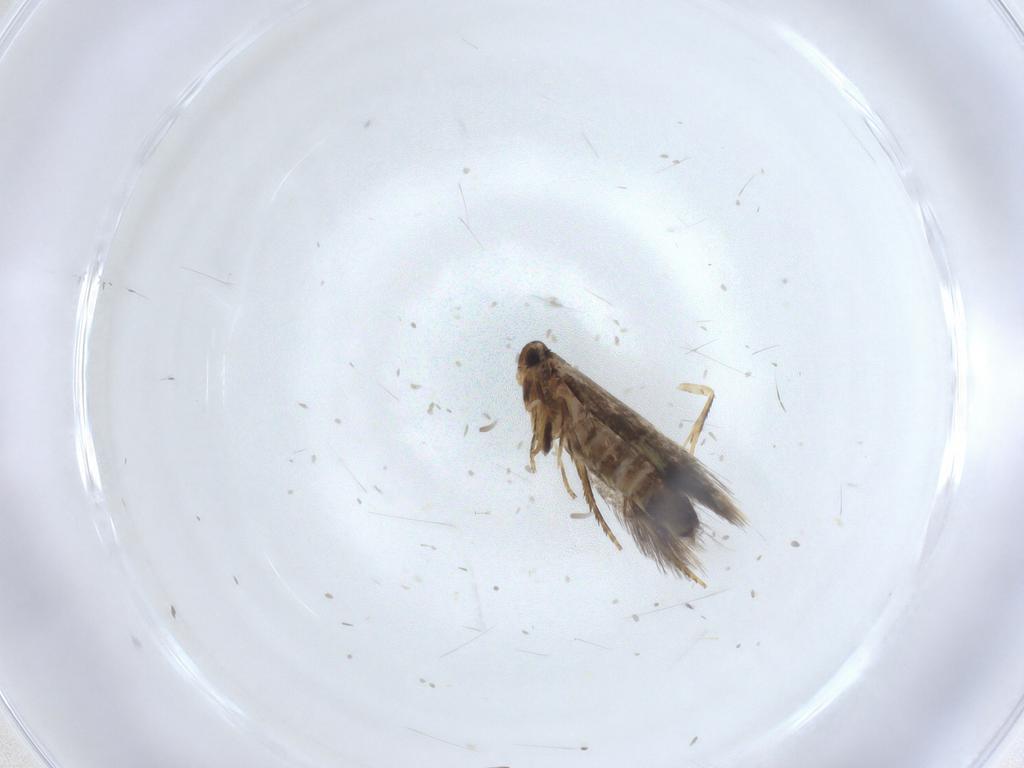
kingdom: Animalia
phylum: Arthropoda
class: Insecta
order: Lepidoptera
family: Heliozelidae
